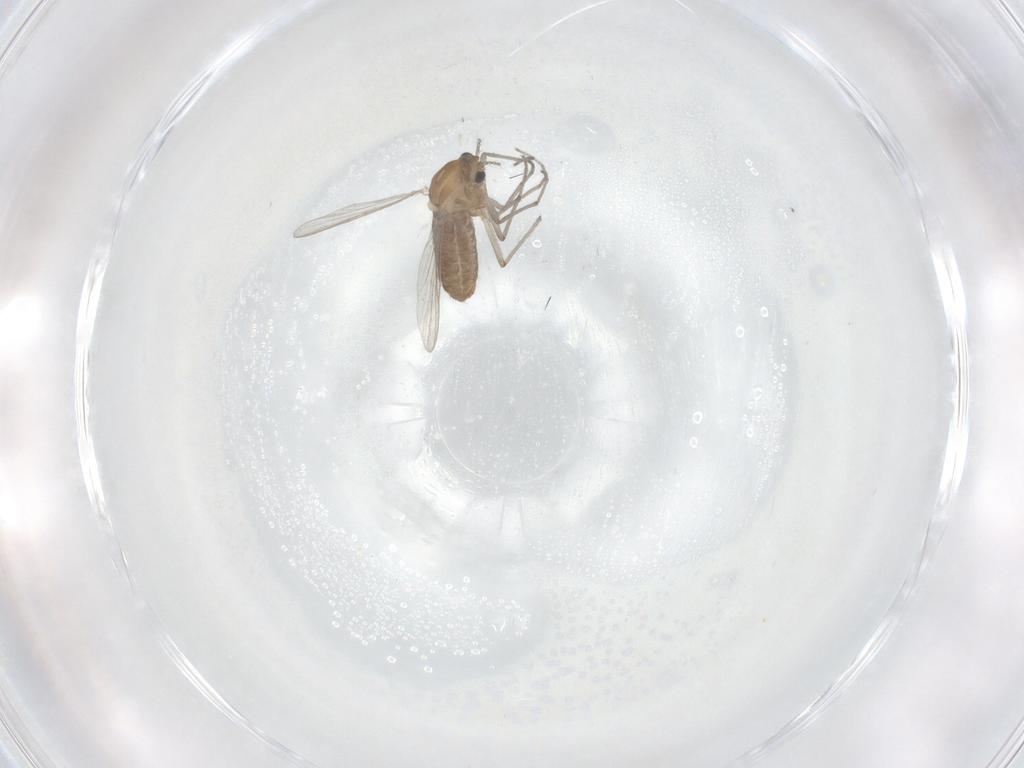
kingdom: Animalia
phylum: Arthropoda
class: Insecta
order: Diptera
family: Chironomidae
